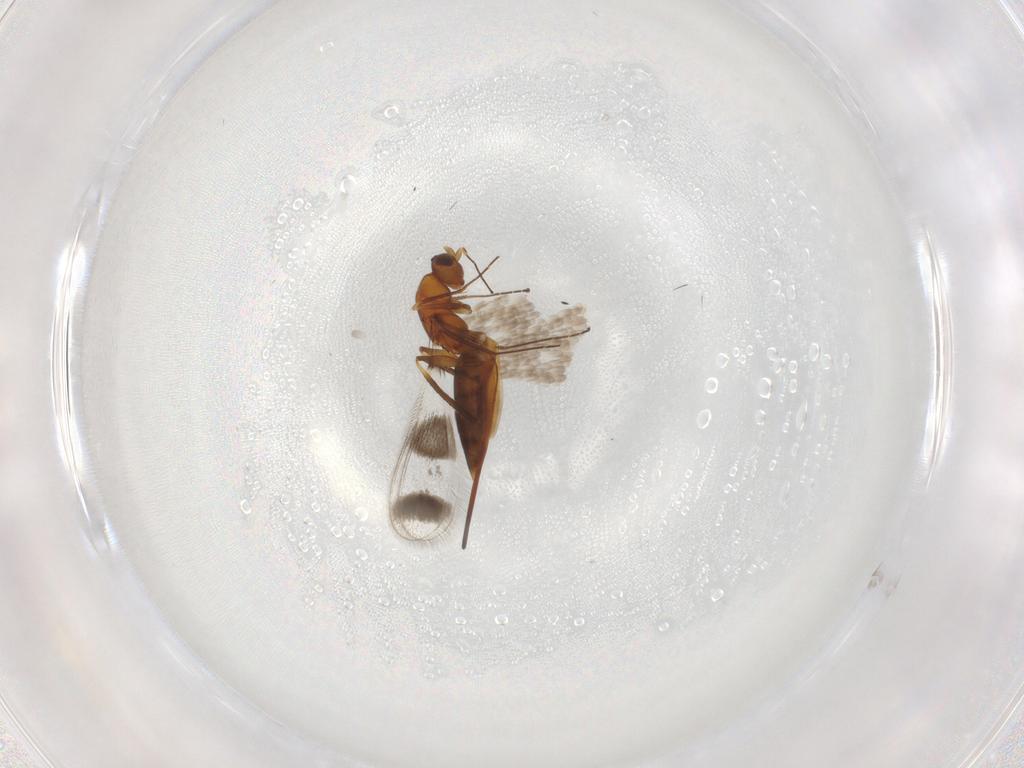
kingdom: Animalia
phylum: Arthropoda
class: Insecta
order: Hymenoptera
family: Mymaridae
